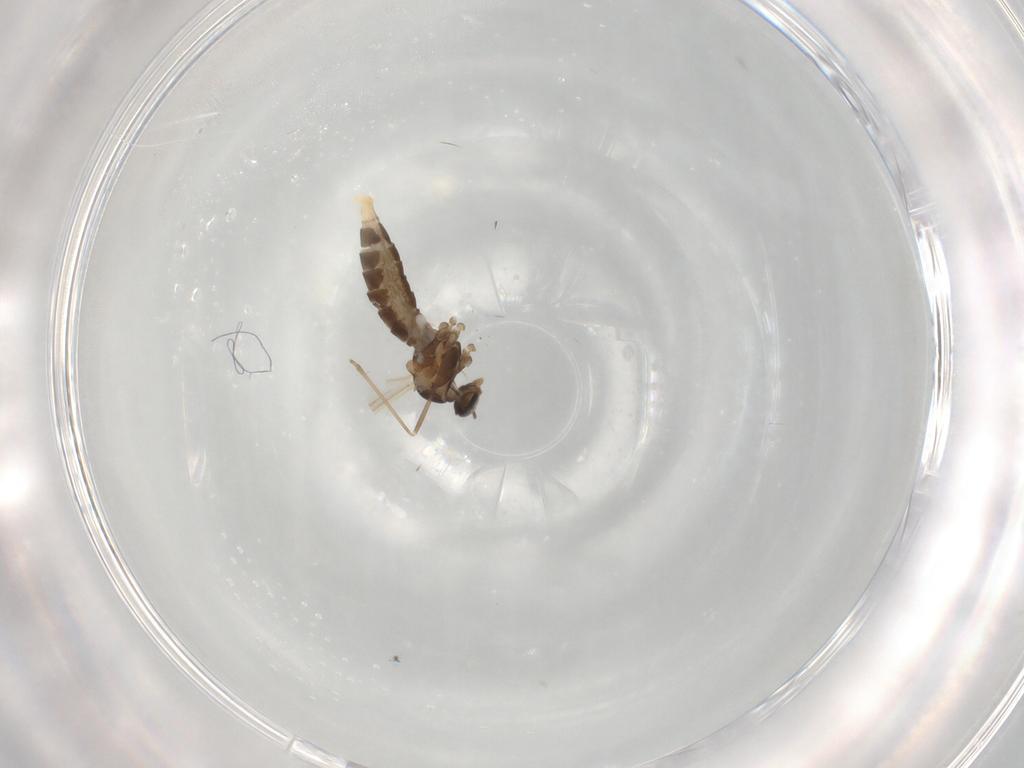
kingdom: Animalia
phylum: Arthropoda
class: Insecta
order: Diptera
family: Cecidomyiidae
